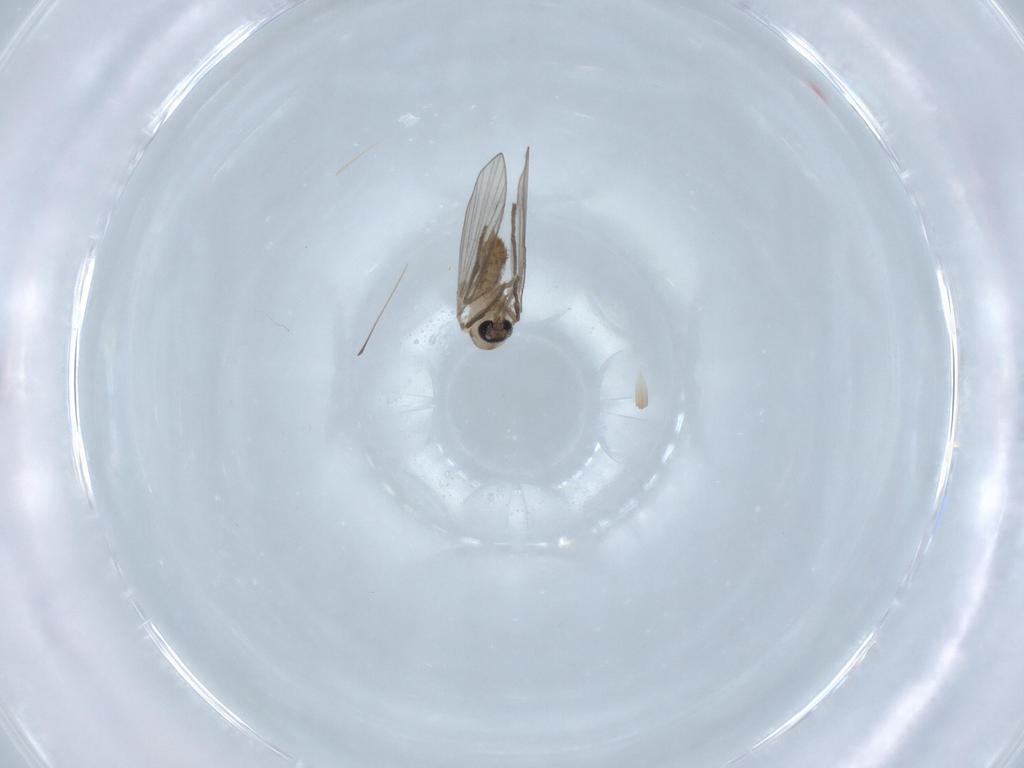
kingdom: Animalia
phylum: Arthropoda
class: Insecta
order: Diptera
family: Psychodidae
